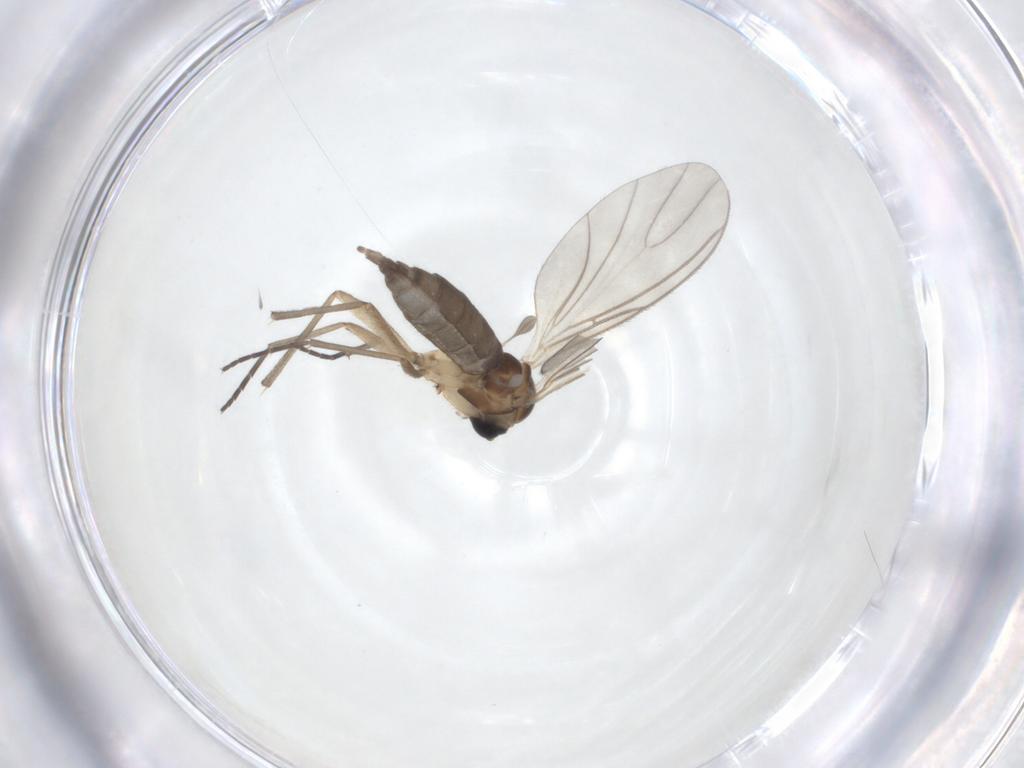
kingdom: Animalia
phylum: Arthropoda
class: Insecta
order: Diptera
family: Sciaridae
